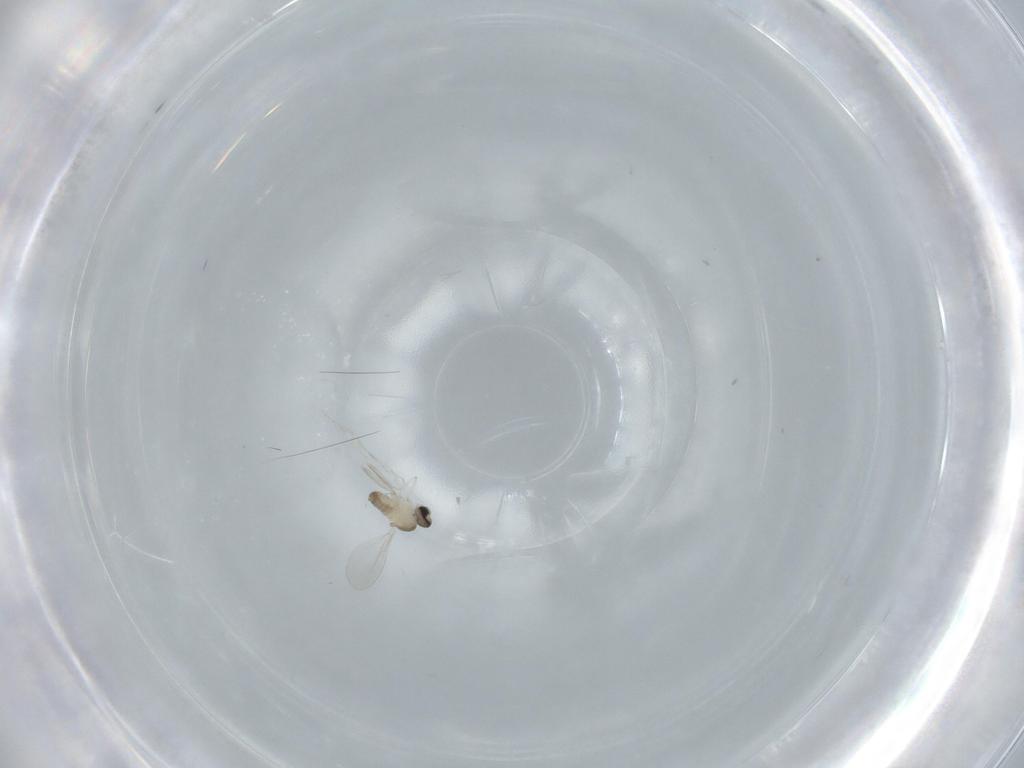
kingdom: Animalia
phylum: Arthropoda
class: Insecta
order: Diptera
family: Cecidomyiidae
